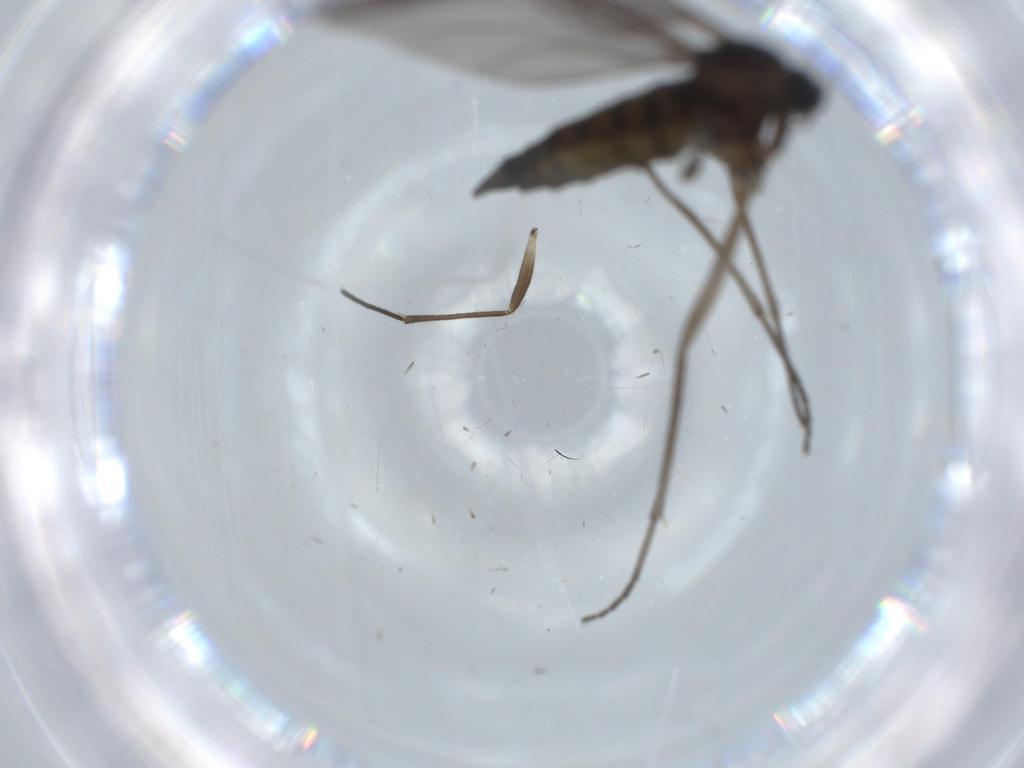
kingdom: Animalia
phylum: Arthropoda
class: Insecta
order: Diptera
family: Sciaridae
